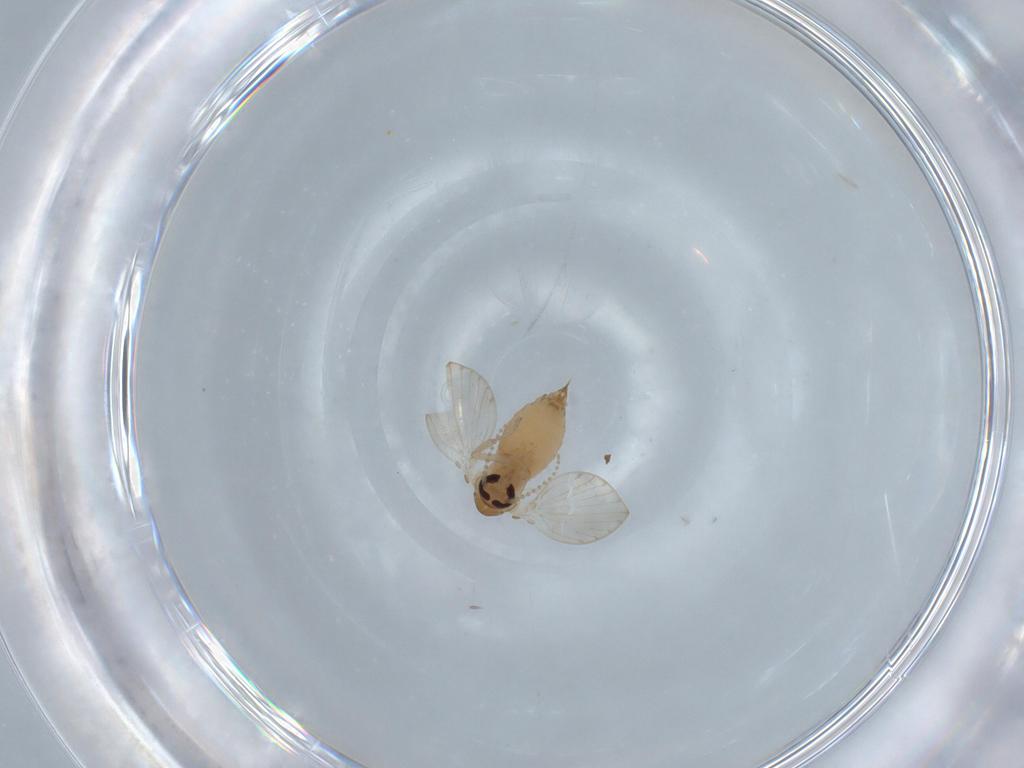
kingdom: Animalia
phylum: Arthropoda
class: Insecta
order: Diptera
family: Psychodidae
